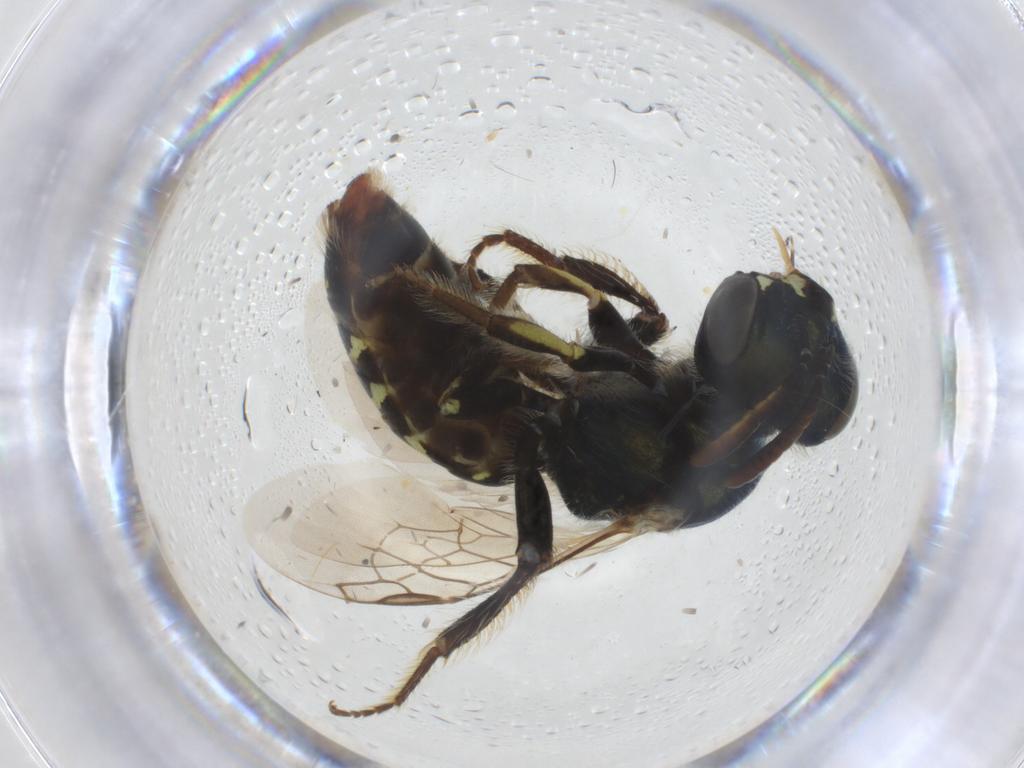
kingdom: Animalia
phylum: Arthropoda
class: Insecta
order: Hymenoptera
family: Andrenidae
